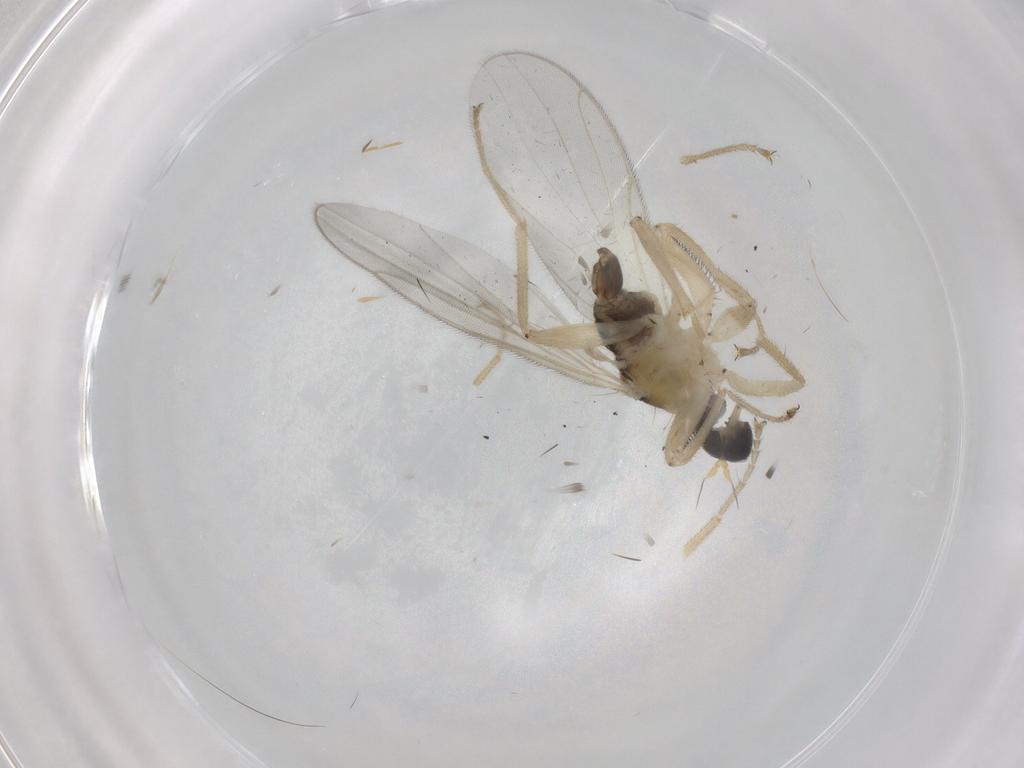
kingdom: Animalia
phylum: Arthropoda
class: Insecta
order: Diptera
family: Hybotidae
